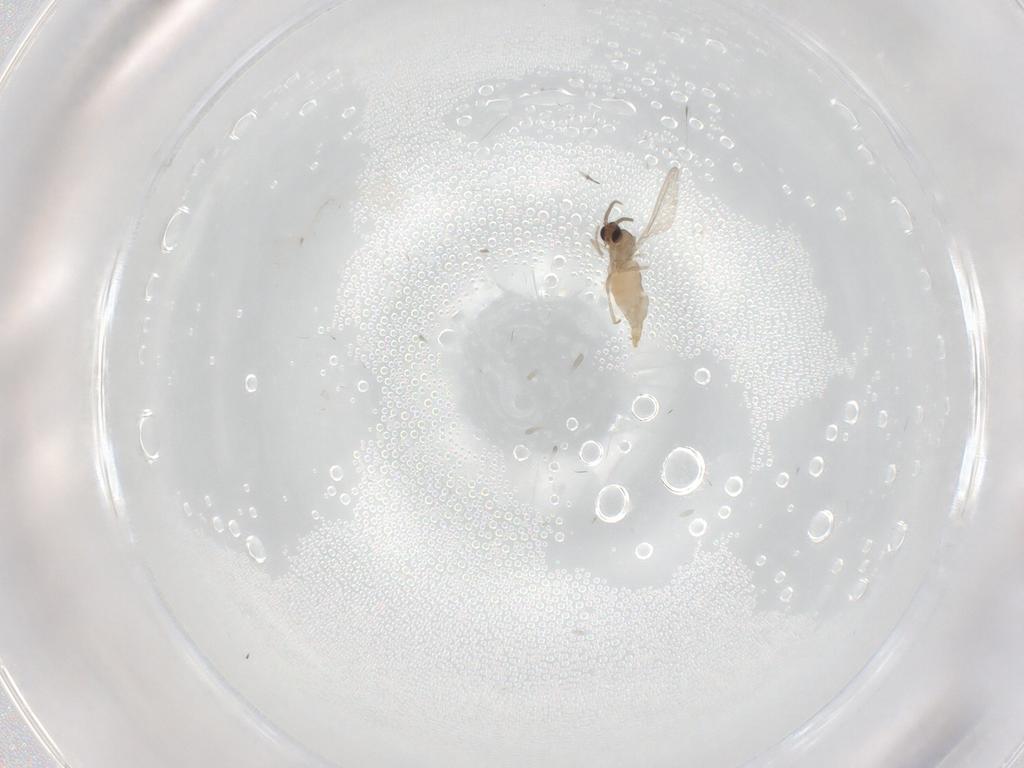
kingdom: Animalia
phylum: Arthropoda
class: Insecta
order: Diptera
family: Cecidomyiidae
